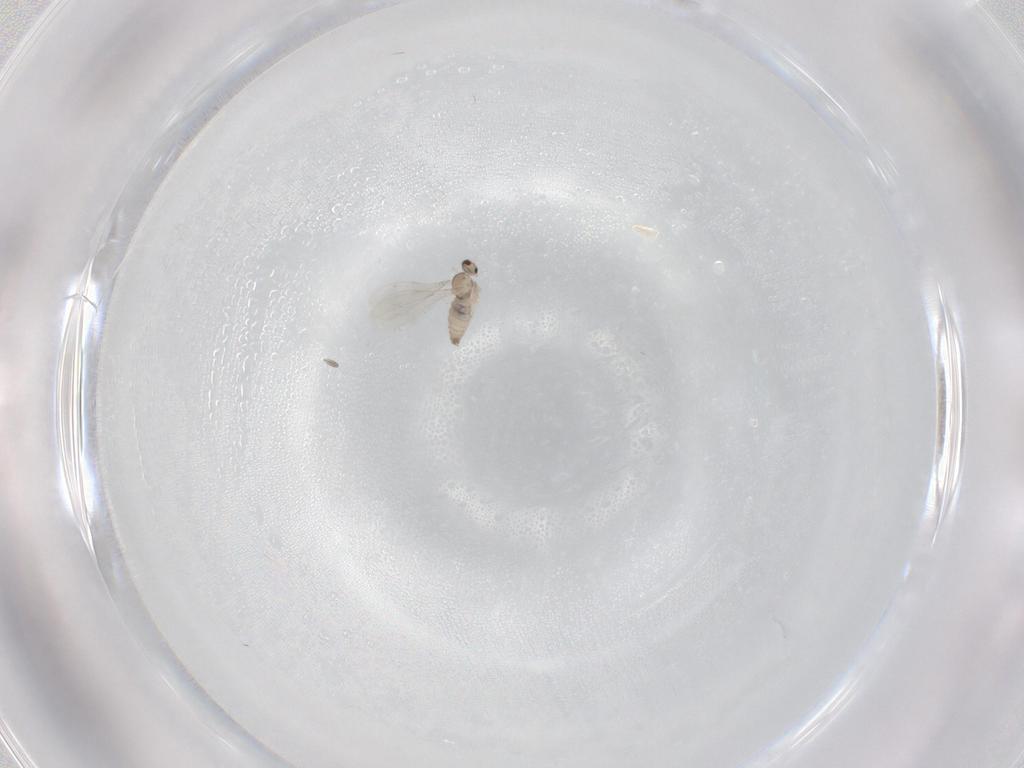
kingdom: Animalia
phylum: Arthropoda
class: Insecta
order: Diptera
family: Cecidomyiidae
